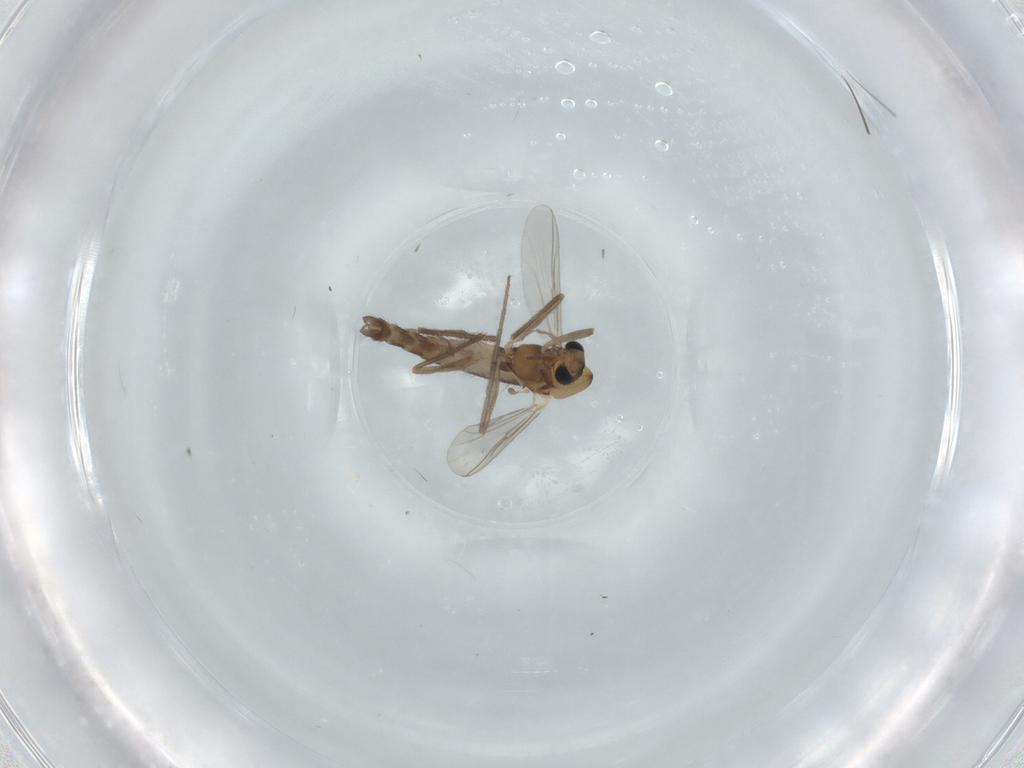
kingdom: Animalia
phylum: Arthropoda
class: Insecta
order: Diptera
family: Chironomidae
